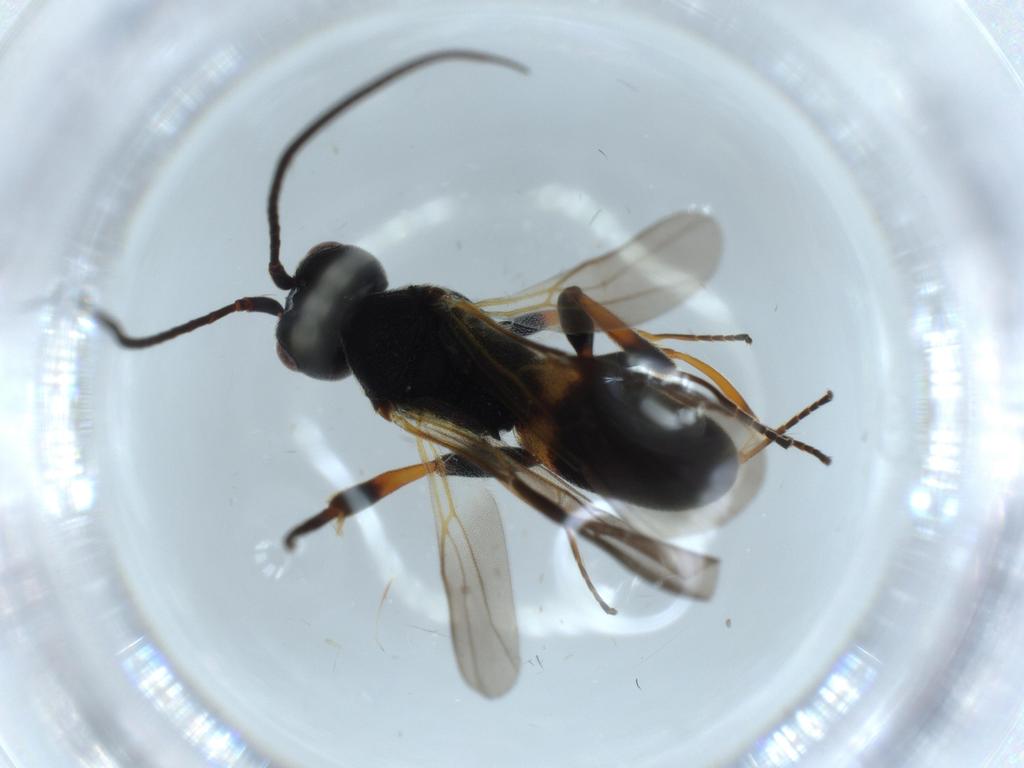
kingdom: Animalia
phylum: Arthropoda
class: Insecta
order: Hymenoptera
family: Braconidae
